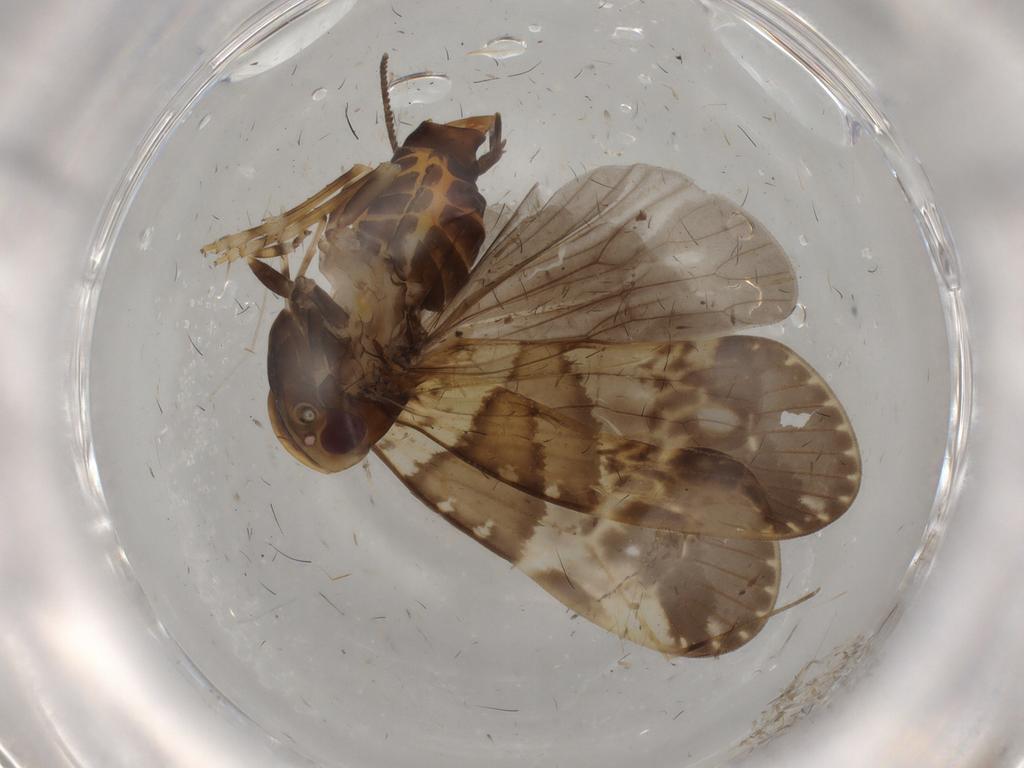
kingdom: Animalia
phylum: Arthropoda
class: Insecta
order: Hemiptera
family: Cixiidae
